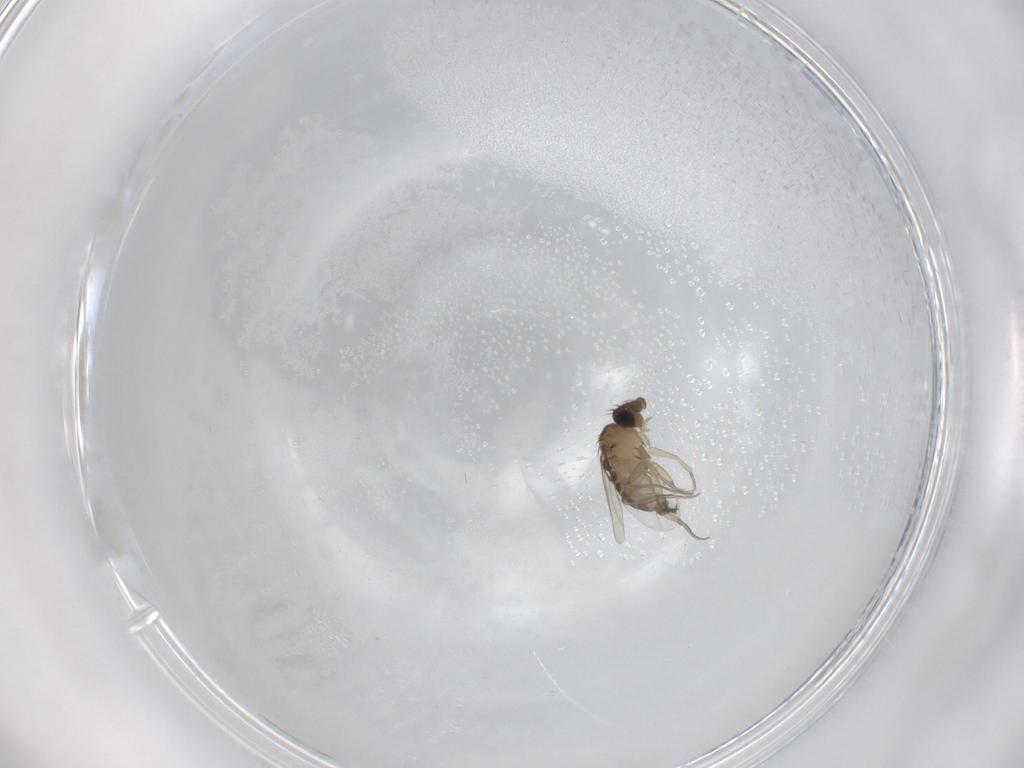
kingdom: Animalia
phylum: Arthropoda
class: Insecta
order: Diptera
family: Phoridae
